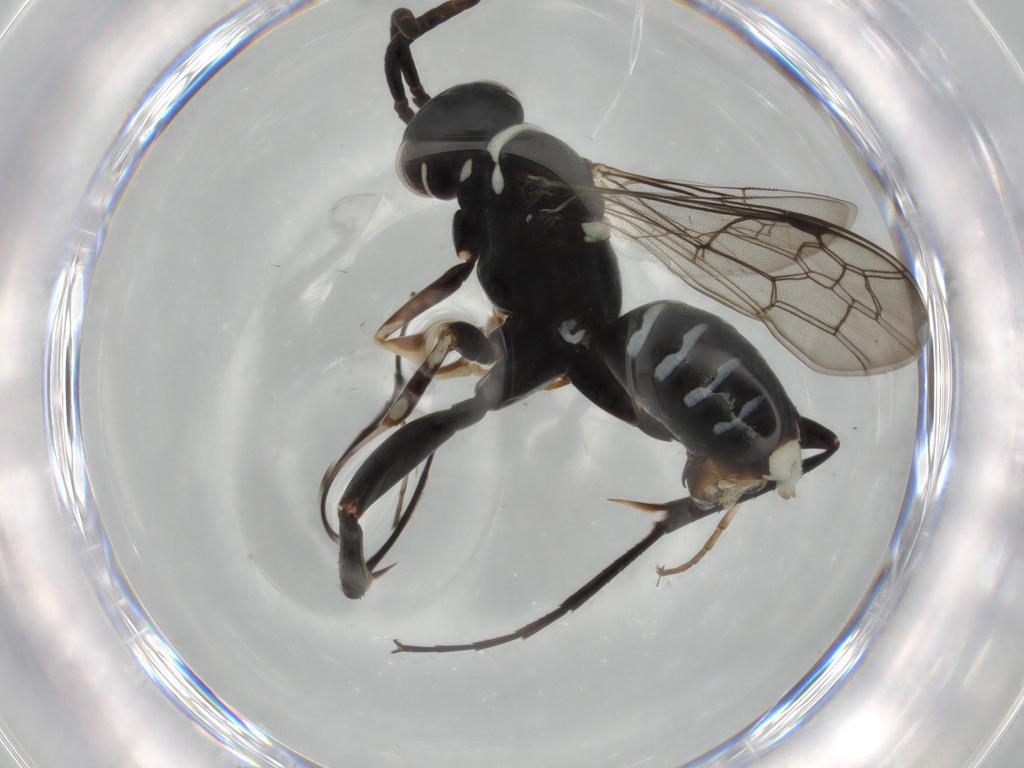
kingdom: Animalia
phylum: Arthropoda
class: Insecta
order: Hymenoptera
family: Pompilidae
